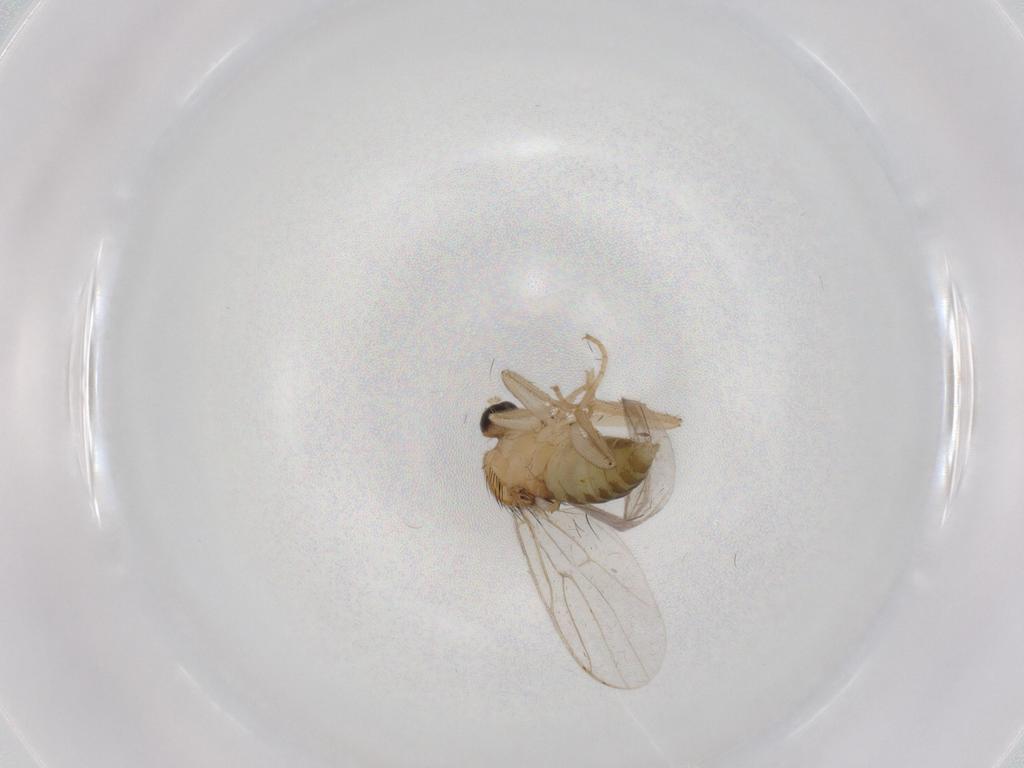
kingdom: Animalia
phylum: Arthropoda
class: Insecta
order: Diptera
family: Hybotidae
